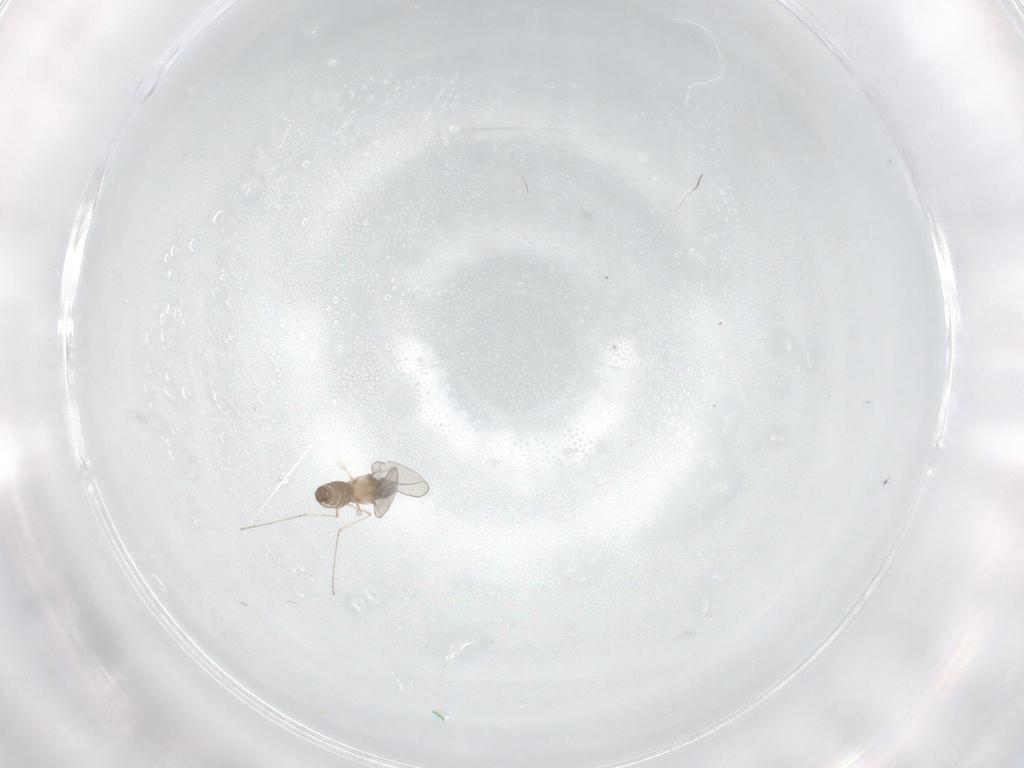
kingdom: Animalia
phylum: Arthropoda
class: Insecta
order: Diptera
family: Cecidomyiidae
